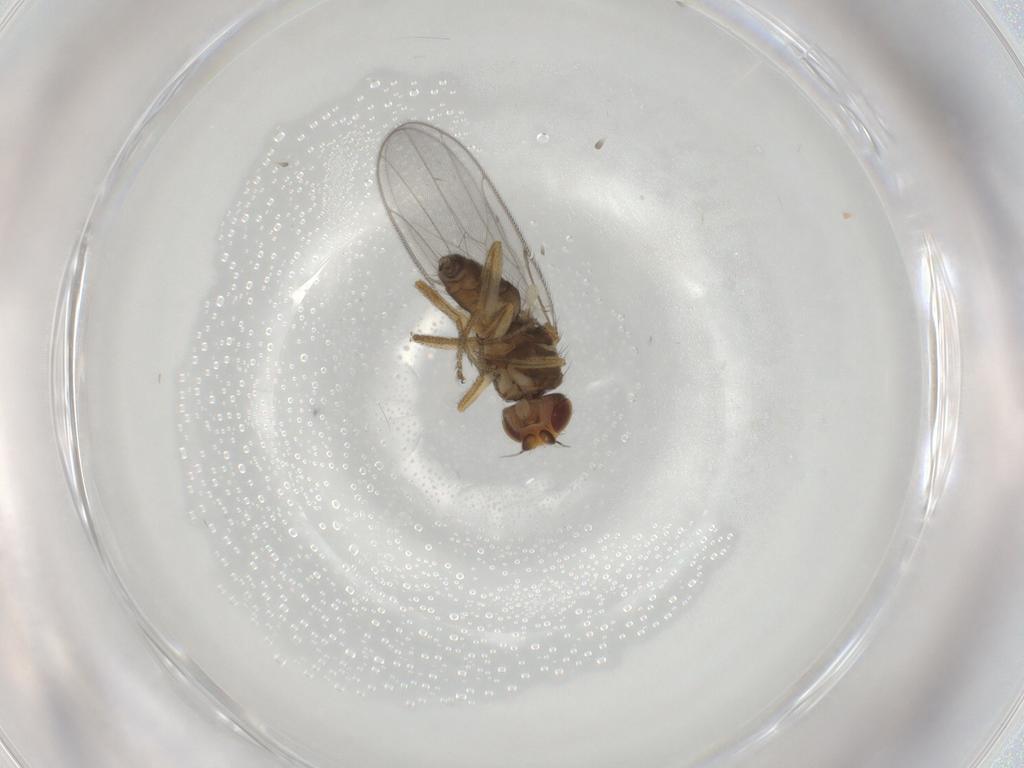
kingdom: Animalia
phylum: Arthropoda
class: Insecta
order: Diptera
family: Chloropidae
